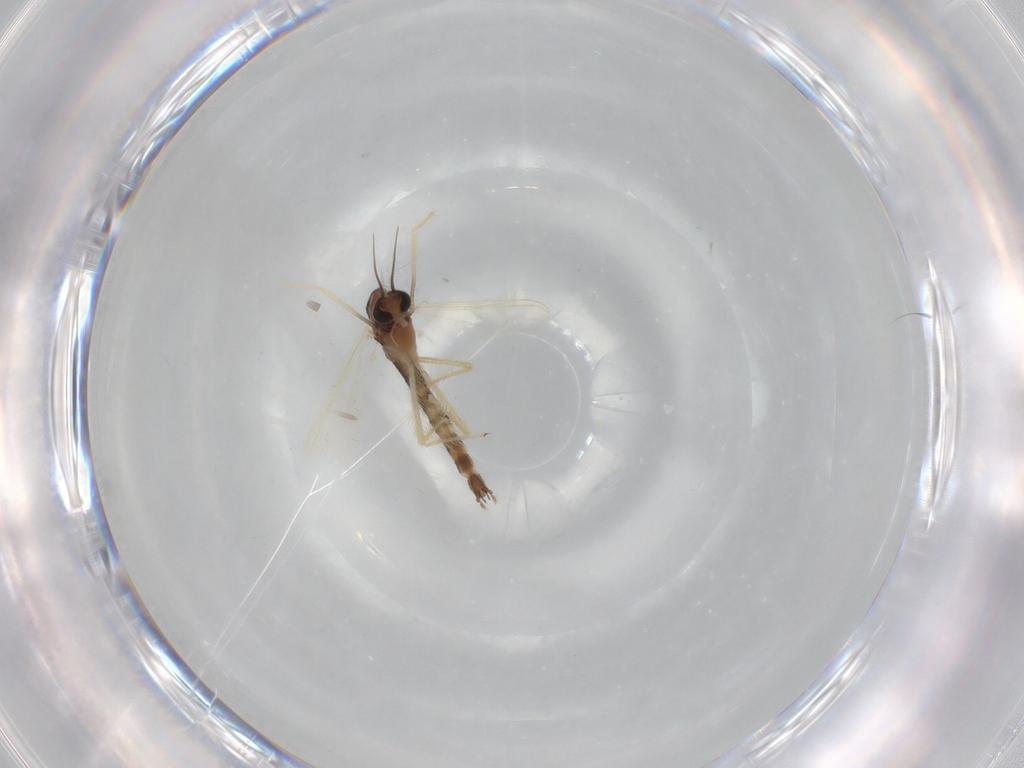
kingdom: Animalia
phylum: Arthropoda
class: Insecta
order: Diptera
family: Chironomidae
